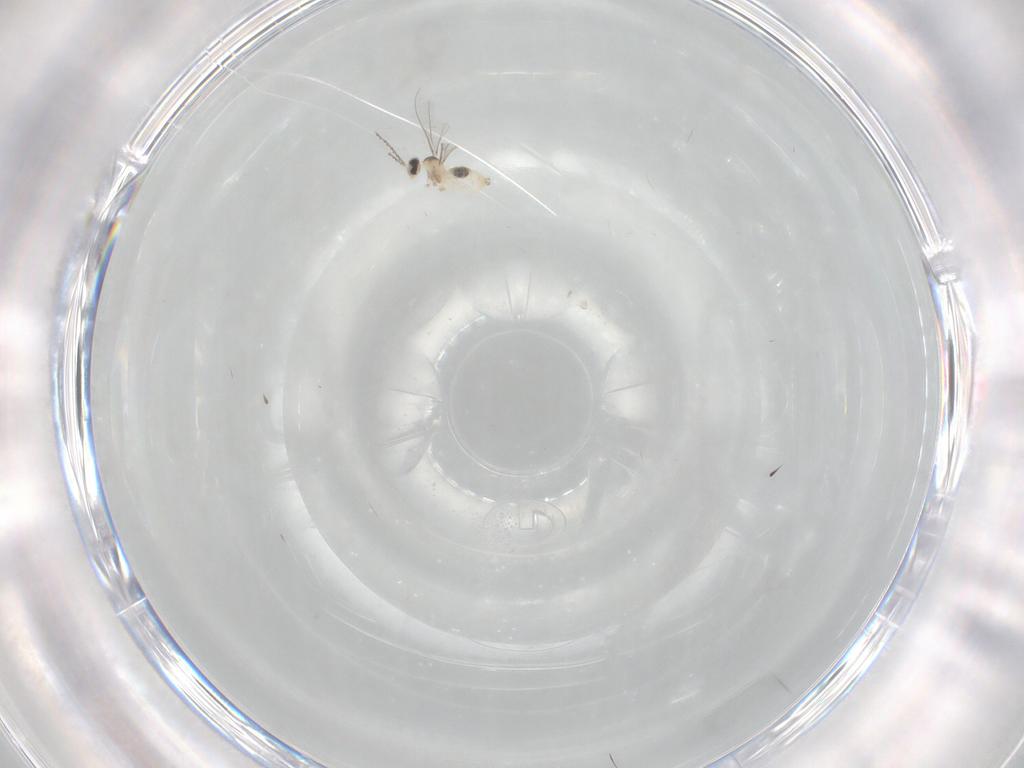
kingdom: Animalia
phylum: Arthropoda
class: Insecta
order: Diptera
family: Cecidomyiidae
